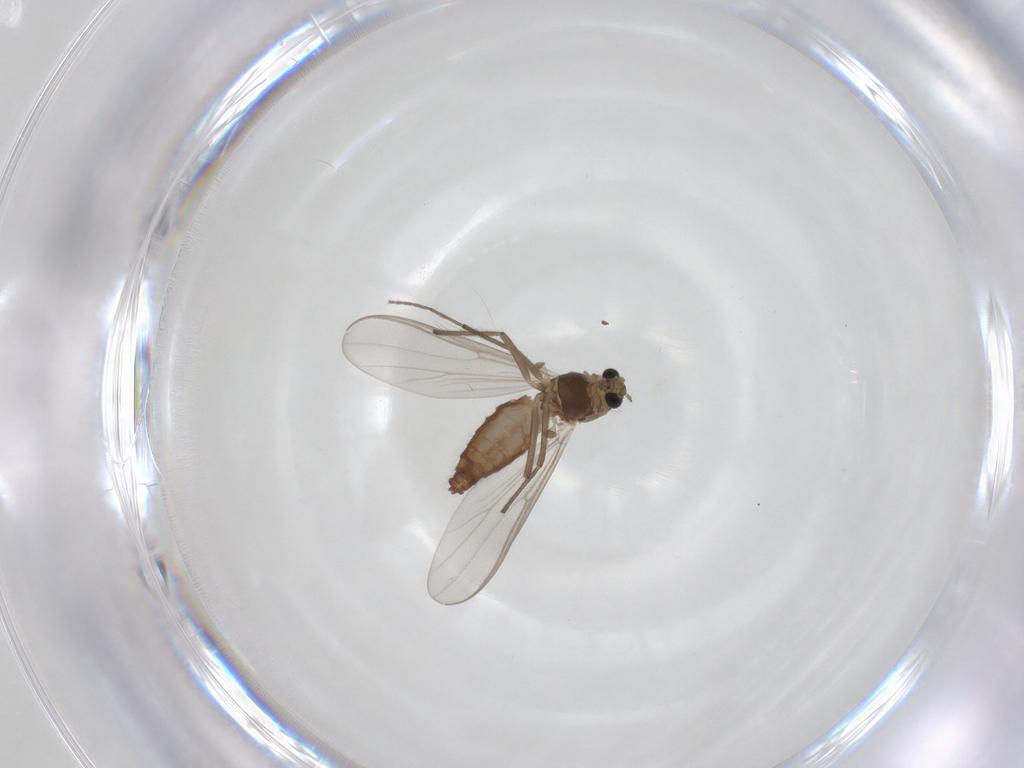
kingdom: Animalia
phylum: Arthropoda
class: Insecta
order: Diptera
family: Chironomidae
